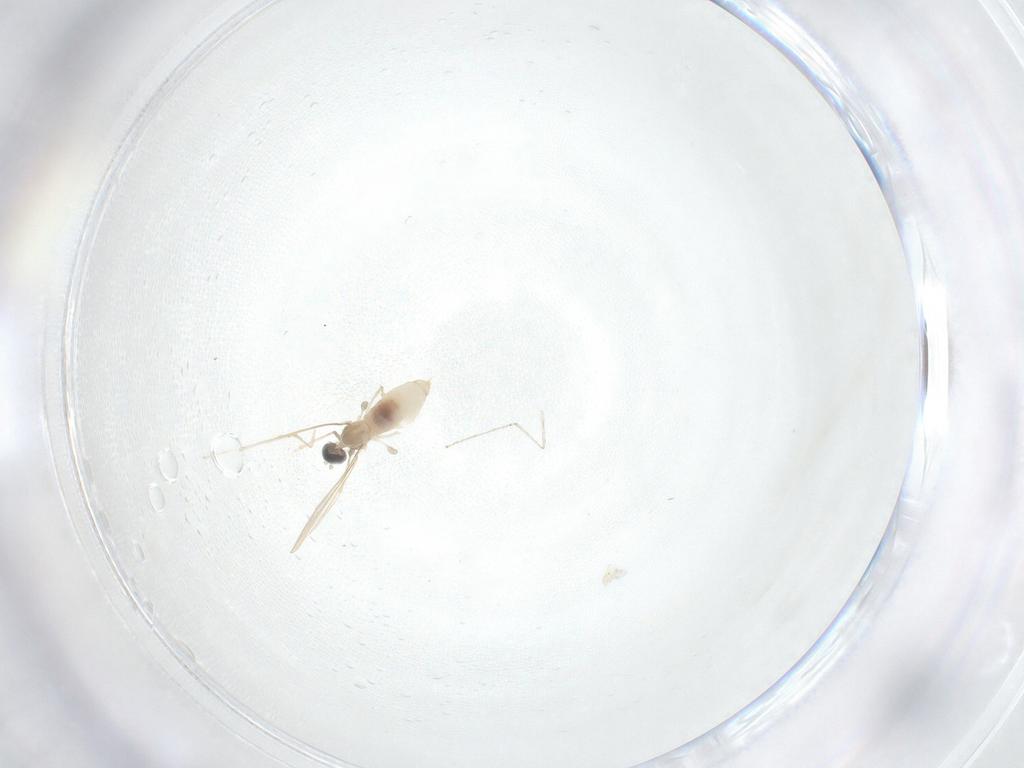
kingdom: Animalia
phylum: Arthropoda
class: Insecta
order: Diptera
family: Cecidomyiidae
